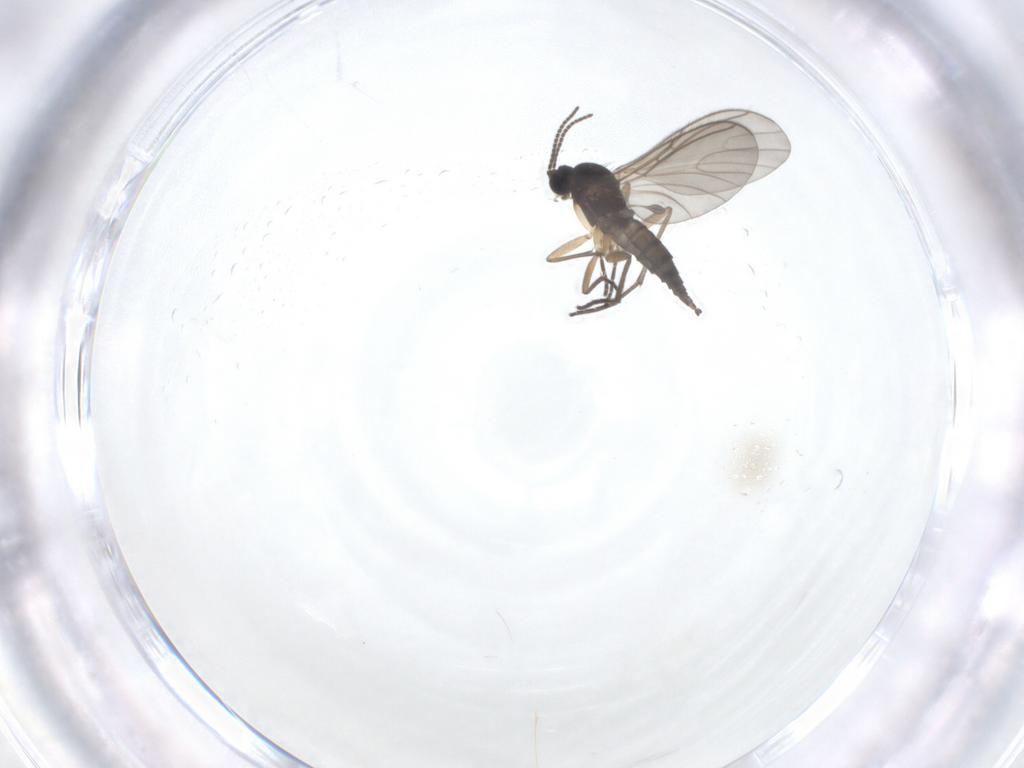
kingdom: Animalia
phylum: Arthropoda
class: Insecta
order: Diptera
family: Sciaridae
